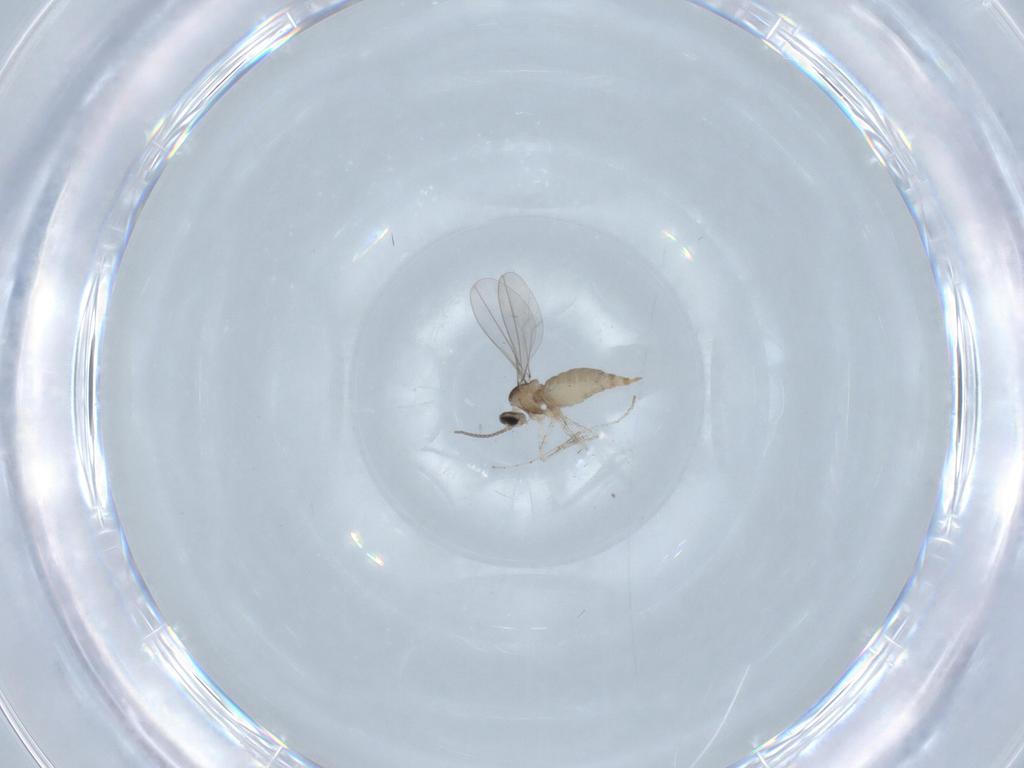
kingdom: Animalia
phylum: Arthropoda
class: Insecta
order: Diptera
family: Cecidomyiidae
